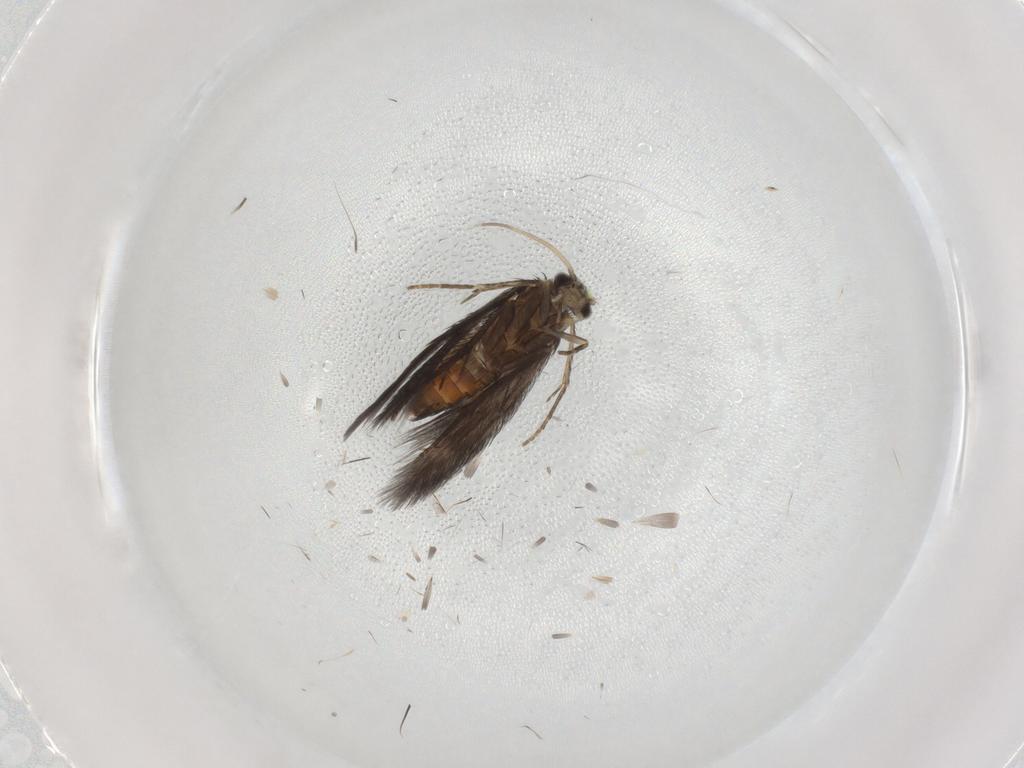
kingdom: Animalia
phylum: Arthropoda
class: Insecta
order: Trichoptera
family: Hydroptilidae
